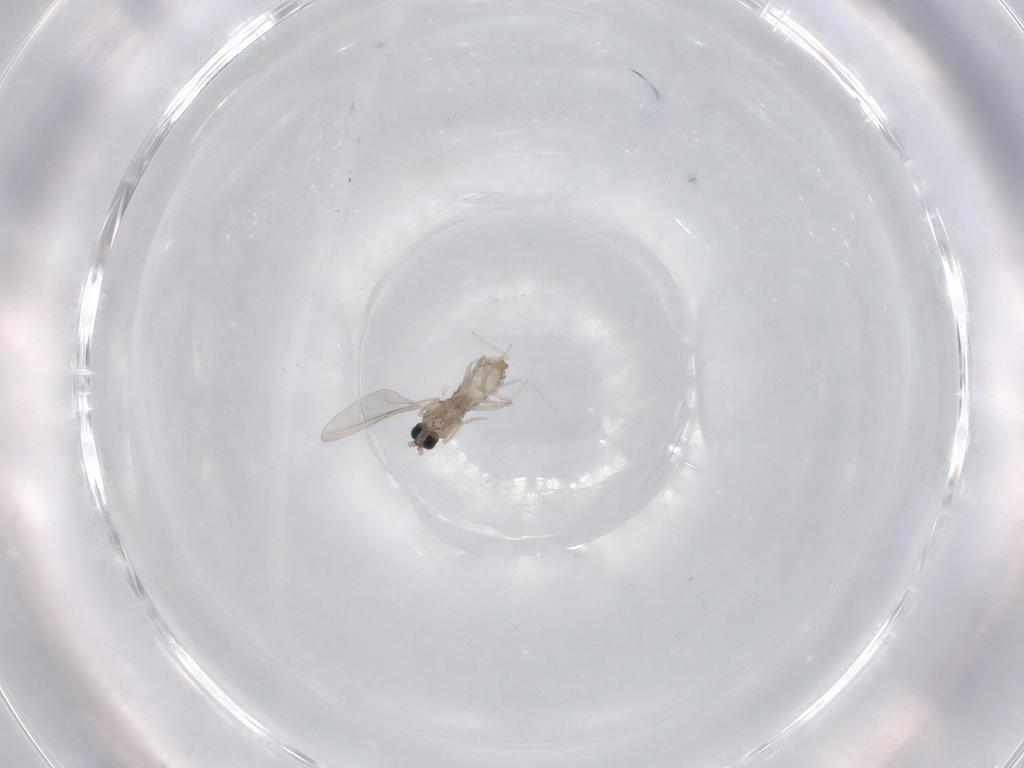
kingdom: Animalia
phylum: Arthropoda
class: Insecta
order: Diptera
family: Cecidomyiidae
